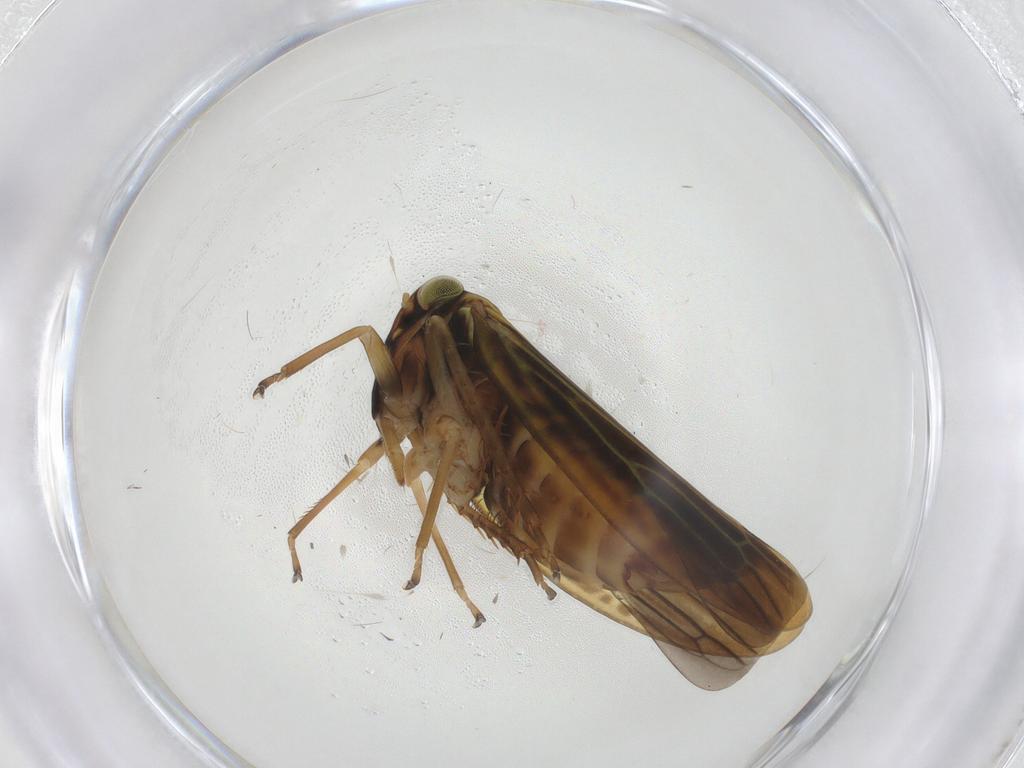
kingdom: Animalia
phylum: Arthropoda
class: Insecta
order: Hemiptera
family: Cicadellidae
